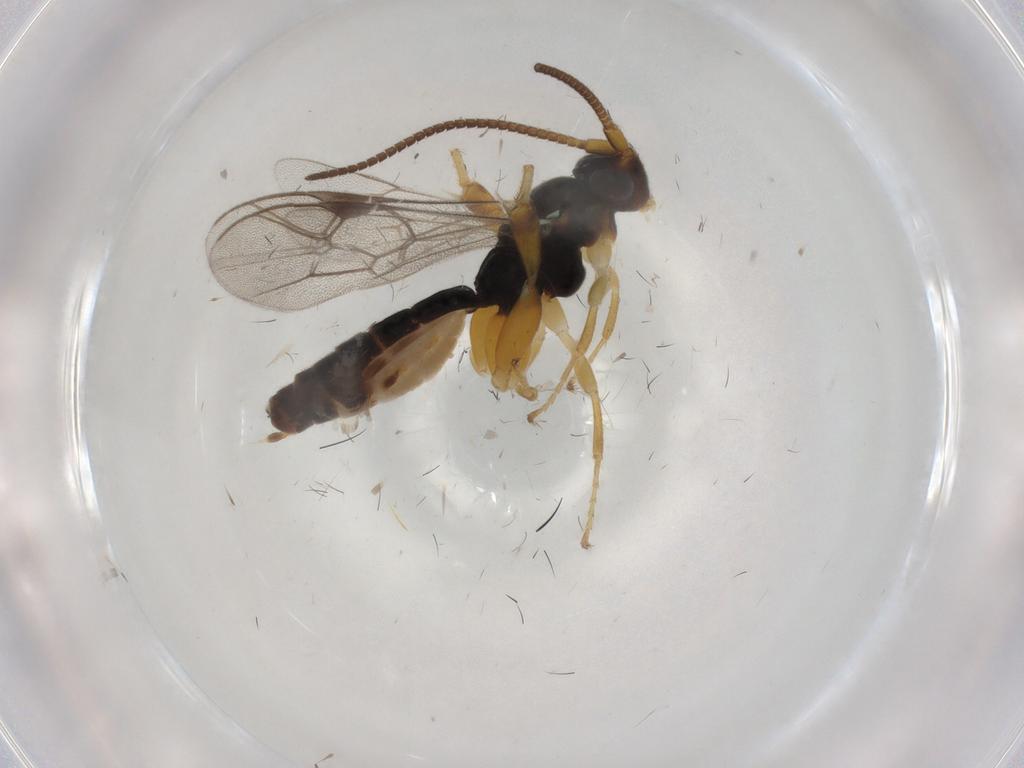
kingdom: Animalia
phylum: Arthropoda
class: Insecta
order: Hymenoptera
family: Ichneumonidae
